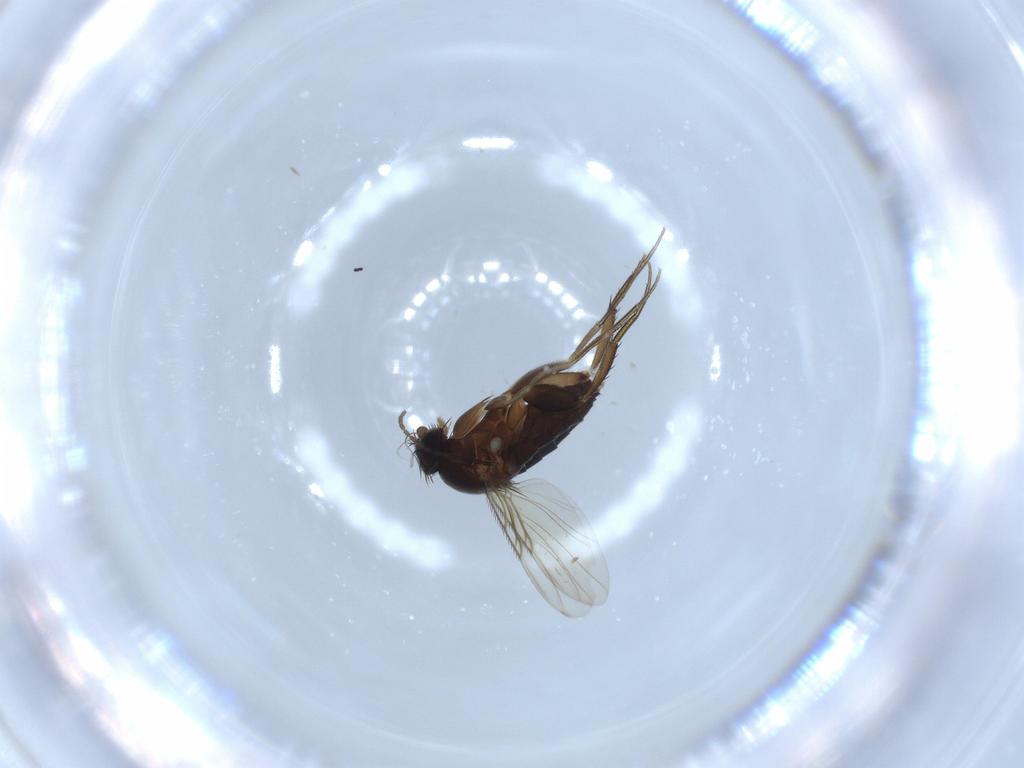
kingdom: Animalia
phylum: Arthropoda
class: Insecta
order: Diptera
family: Phoridae
